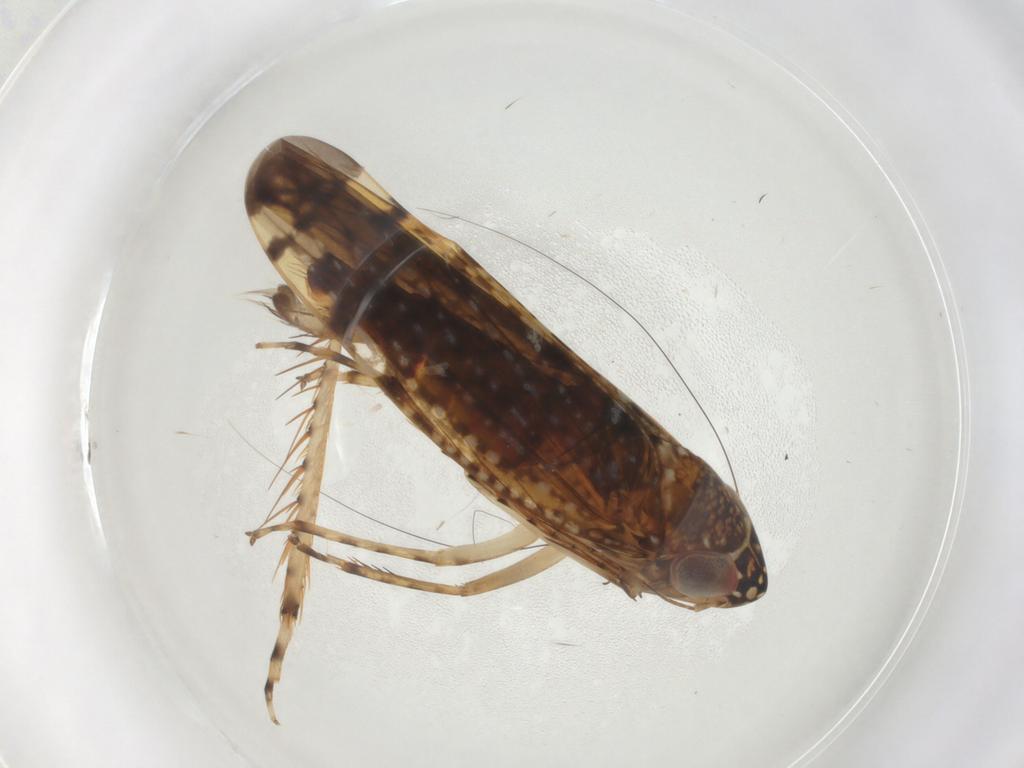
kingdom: Animalia
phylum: Arthropoda
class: Insecta
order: Hemiptera
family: Cicadellidae
